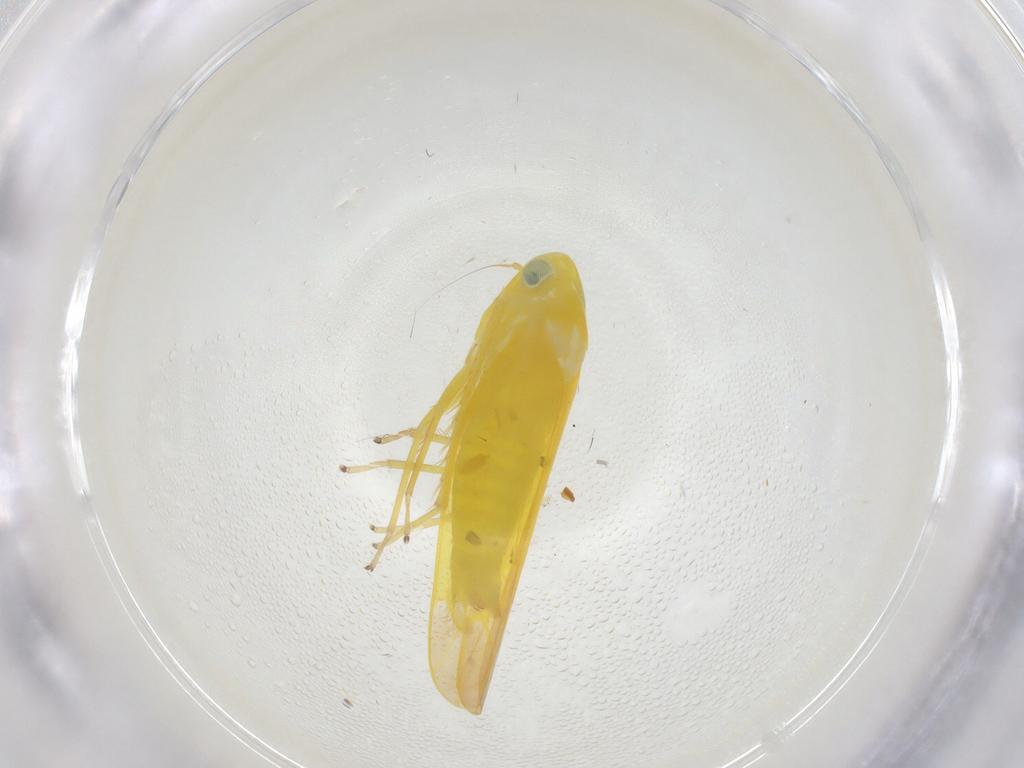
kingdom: Animalia
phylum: Arthropoda
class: Insecta
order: Hemiptera
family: Cicadellidae
